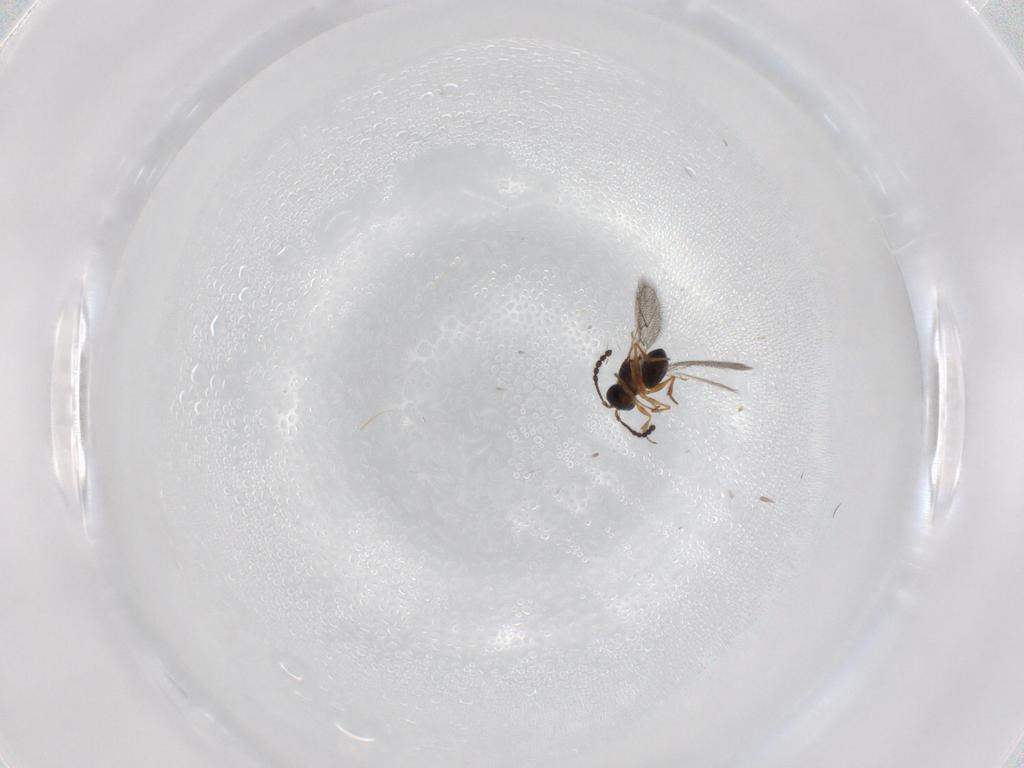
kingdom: Animalia
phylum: Arthropoda
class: Insecta
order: Hymenoptera
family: Figitidae
